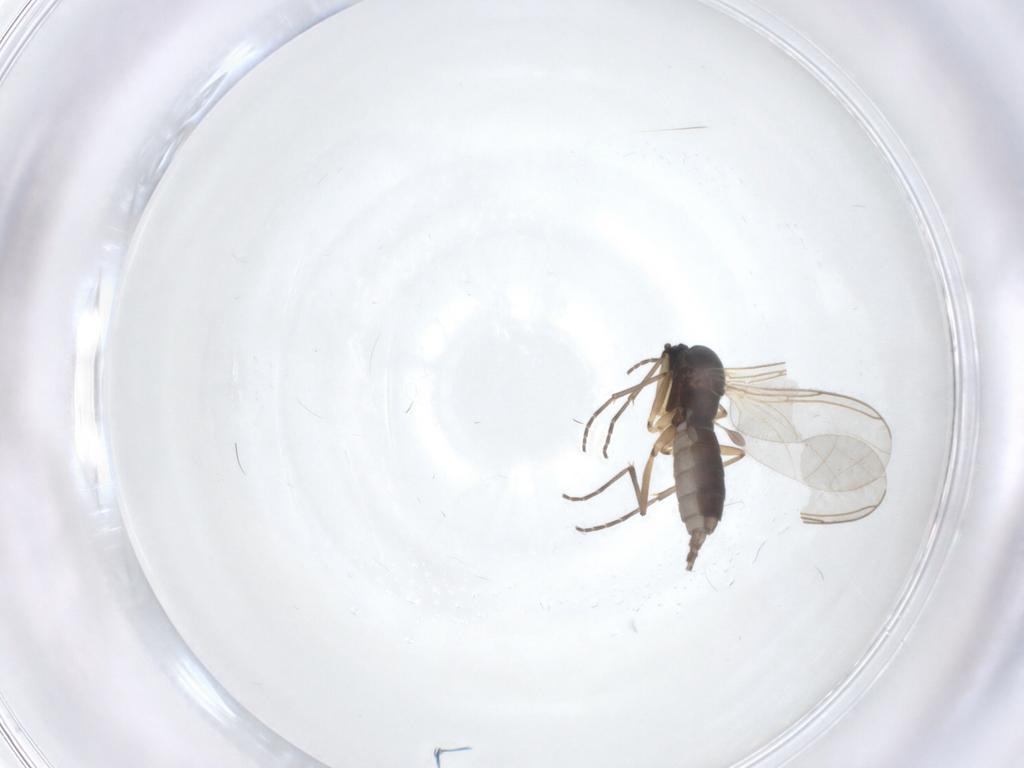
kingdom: Animalia
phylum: Arthropoda
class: Insecta
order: Diptera
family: Sciaridae
